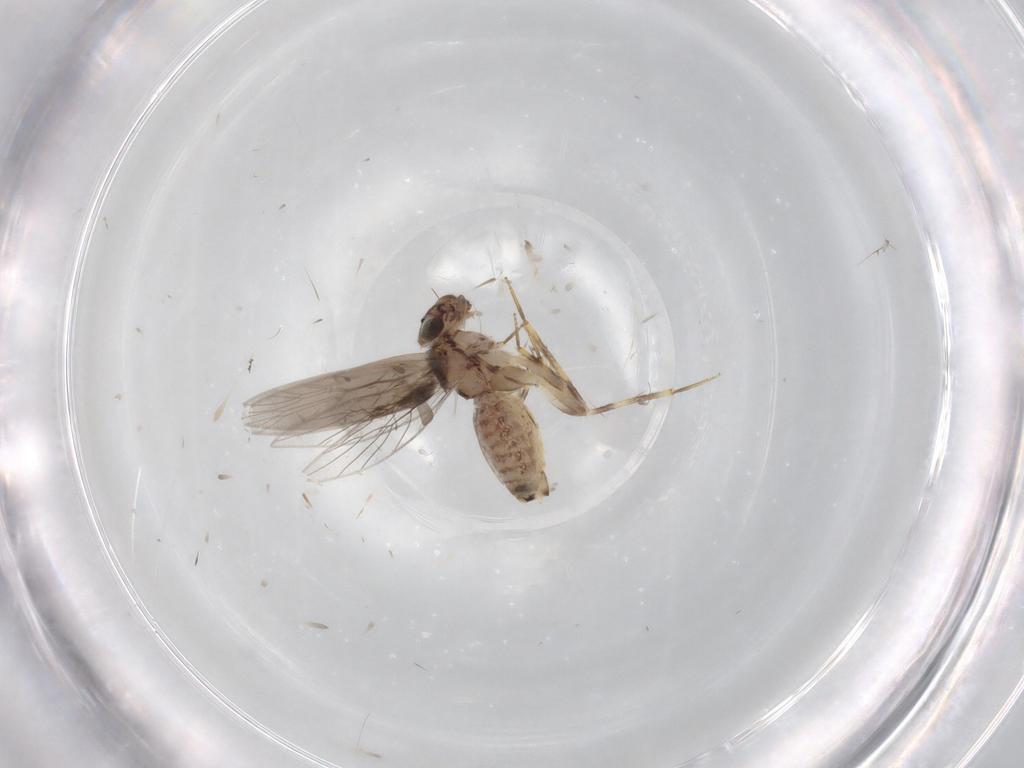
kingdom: Animalia
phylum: Arthropoda
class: Insecta
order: Psocodea
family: Lepidopsocidae
